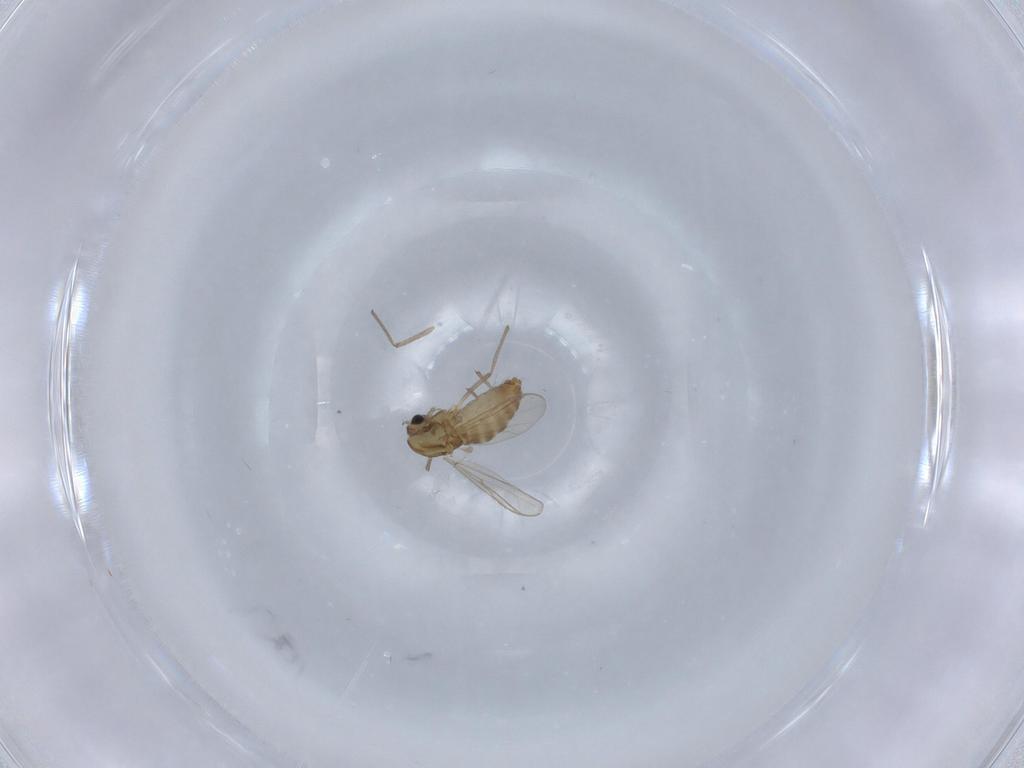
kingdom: Animalia
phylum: Arthropoda
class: Insecta
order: Diptera
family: Chironomidae
